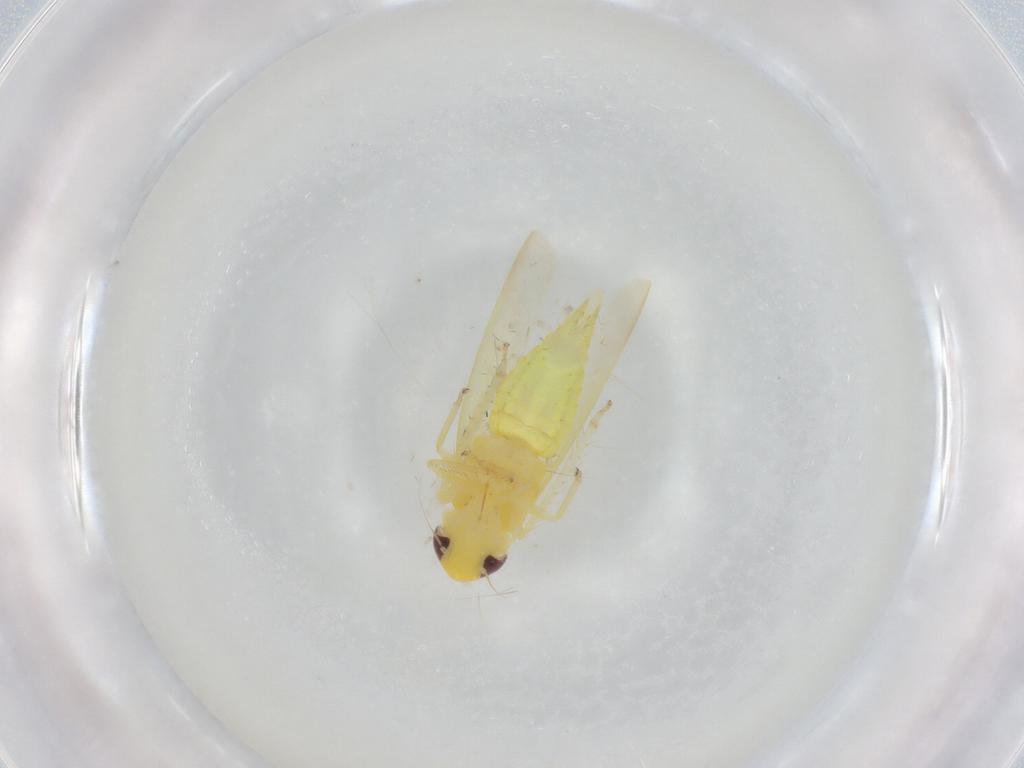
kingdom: Animalia
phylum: Arthropoda
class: Insecta
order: Hemiptera
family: Cicadellidae
